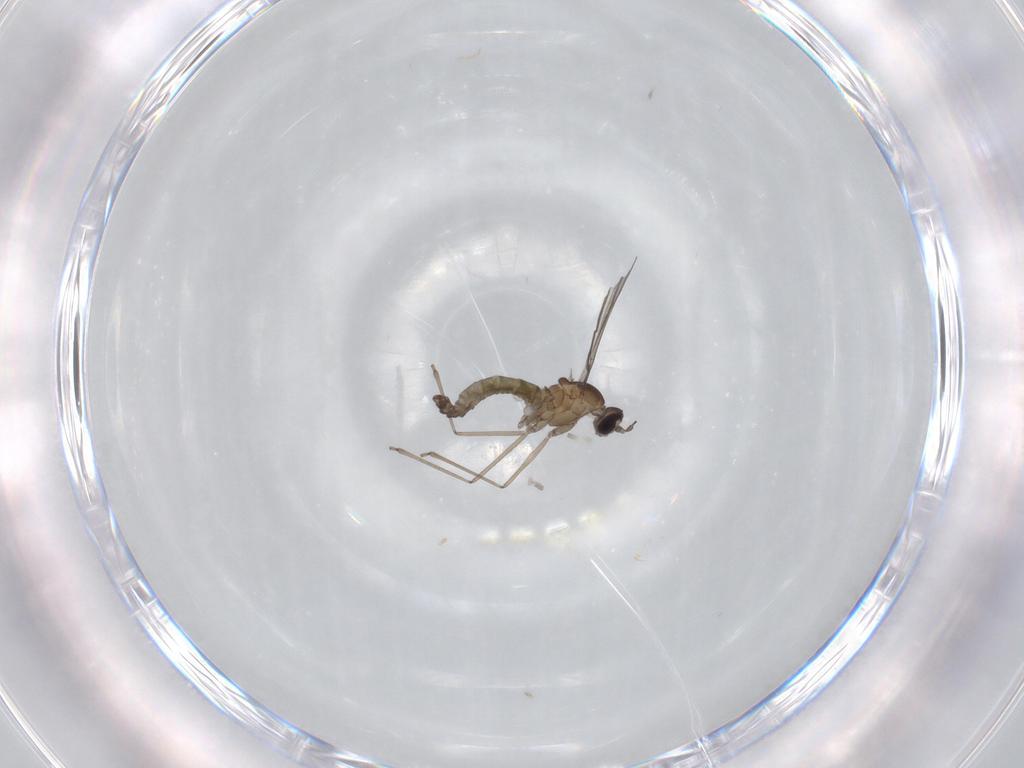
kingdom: Animalia
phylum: Arthropoda
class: Insecta
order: Diptera
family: Cecidomyiidae
